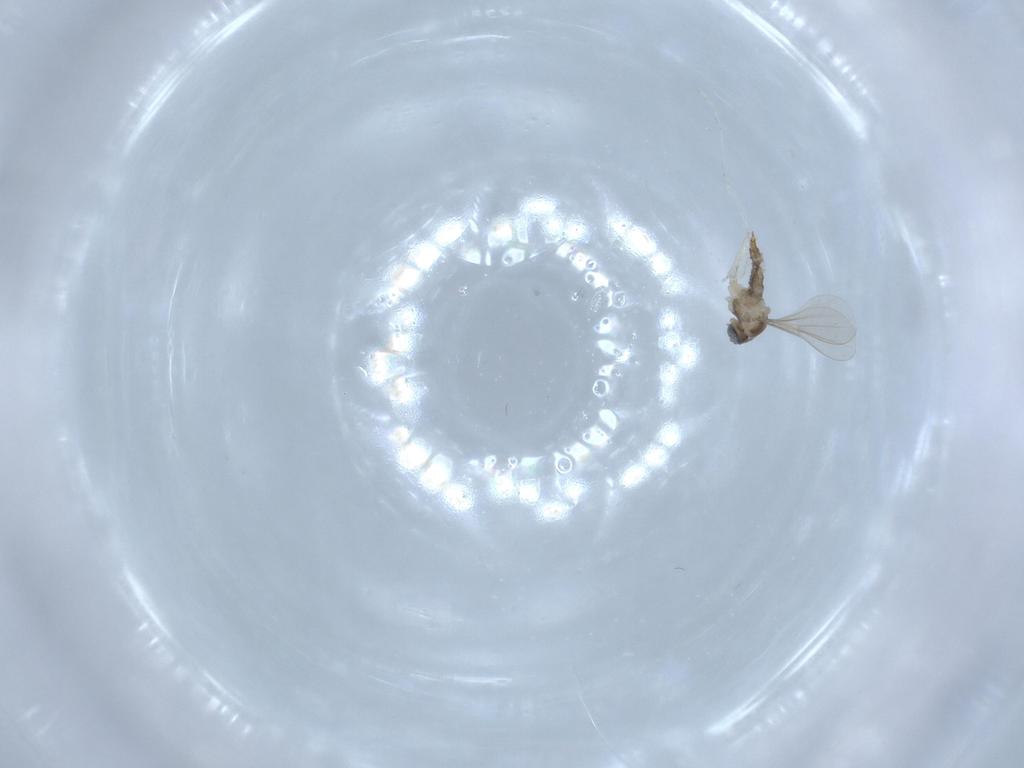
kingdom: Animalia
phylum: Arthropoda
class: Insecta
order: Diptera
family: Cecidomyiidae
